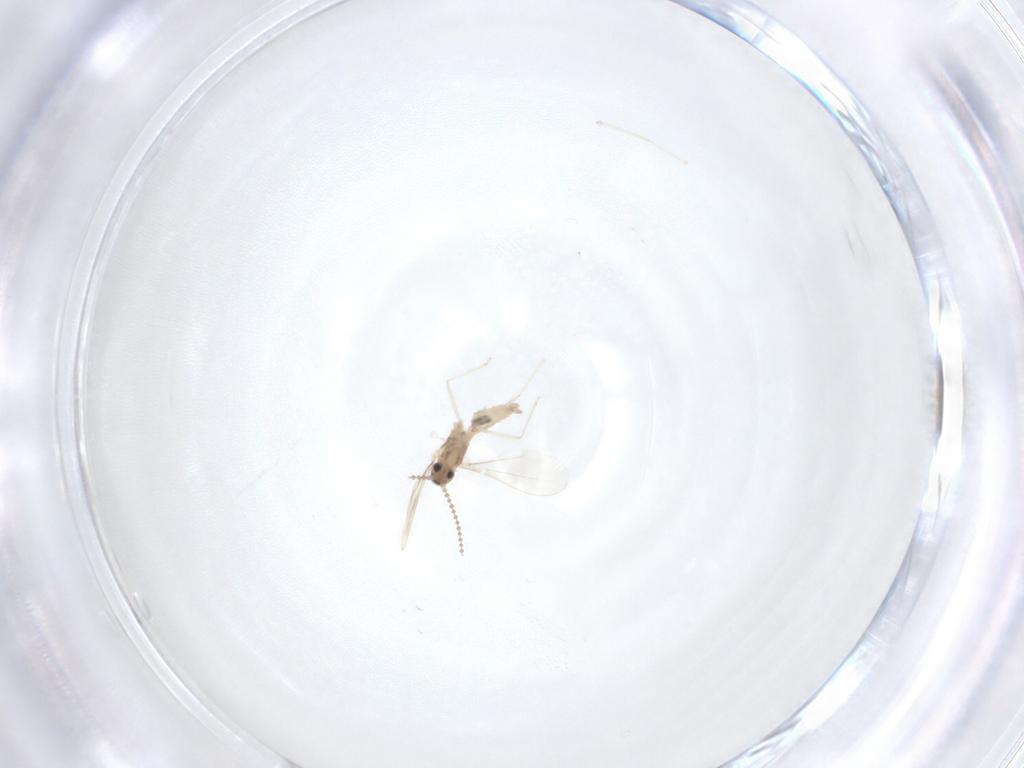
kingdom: Animalia
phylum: Arthropoda
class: Insecta
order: Diptera
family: Cecidomyiidae
